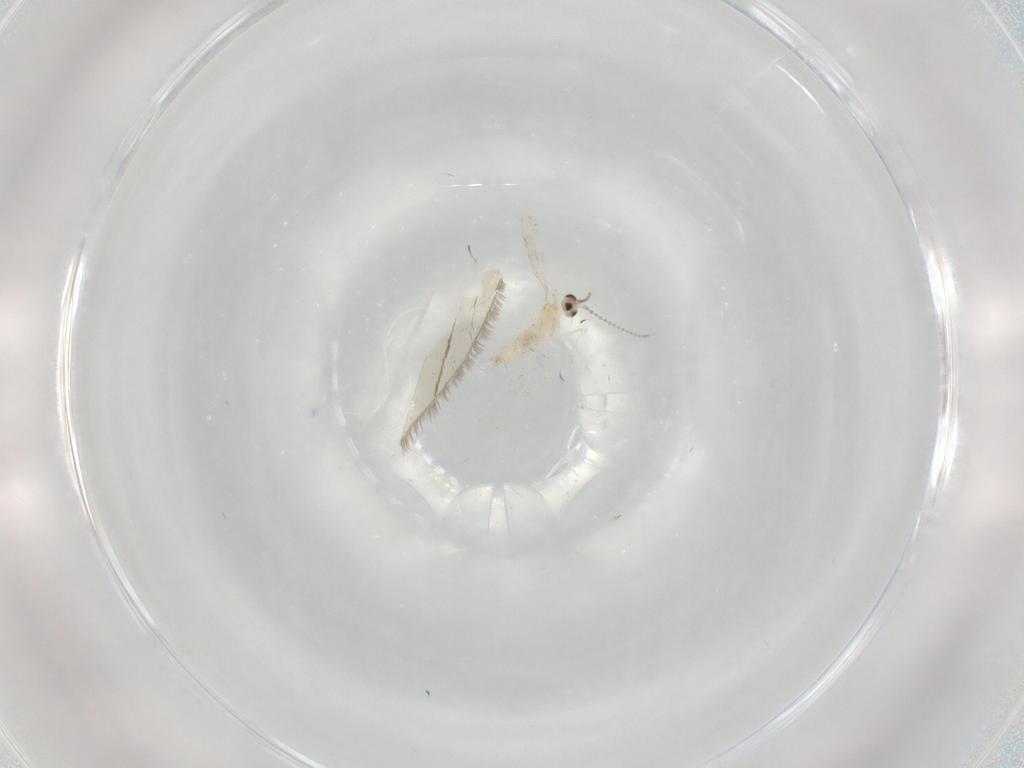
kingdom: Animalia
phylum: Arthropoda
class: Insecta
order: Diptera
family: Cecidomyiidae
